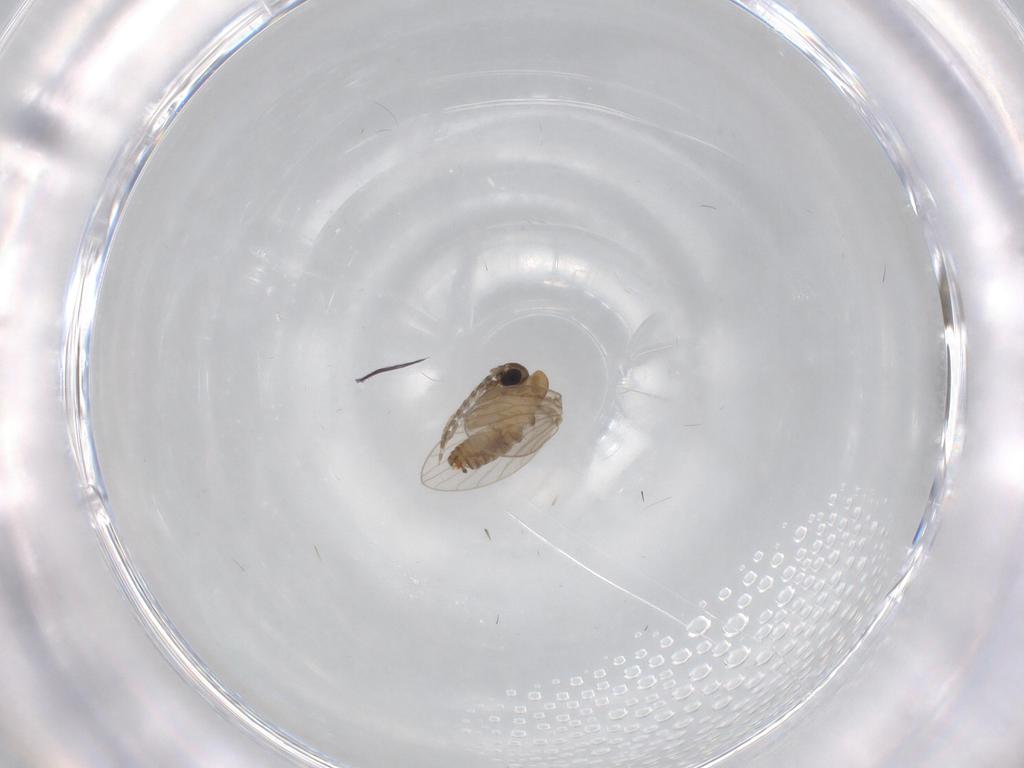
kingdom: Animalia
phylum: Arthropoda
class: Insecta
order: Diptera
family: Psychodidae
